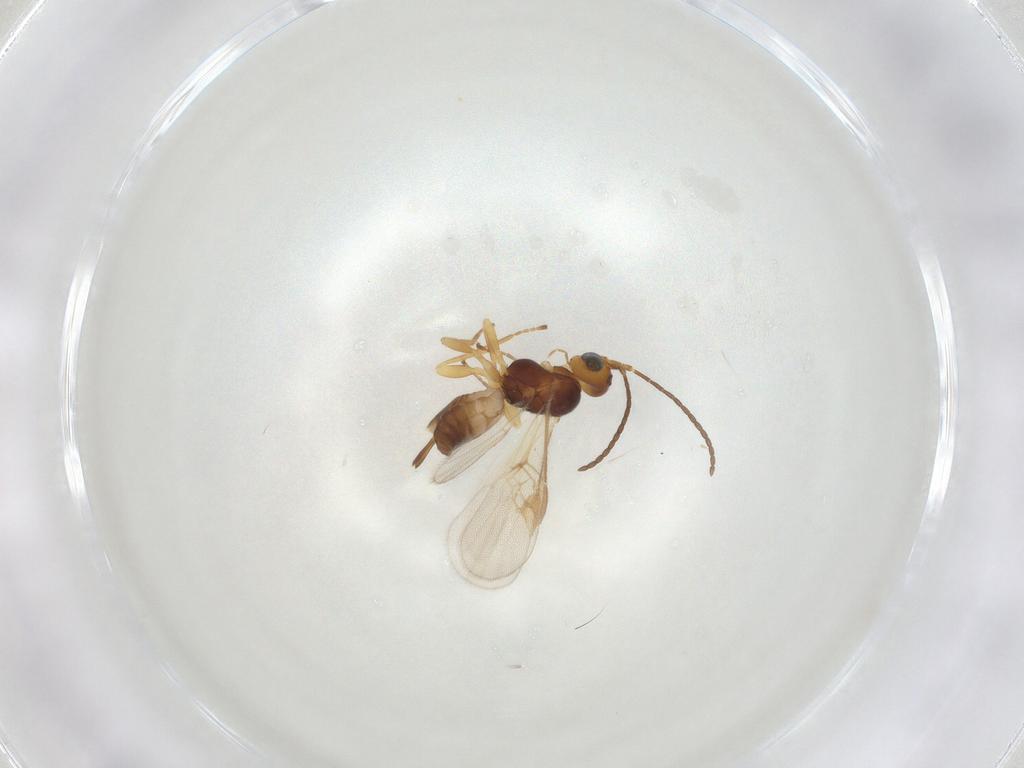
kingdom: Animalia
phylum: Arthropoda
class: Insecta
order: Hymenoptera
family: Braconidae
